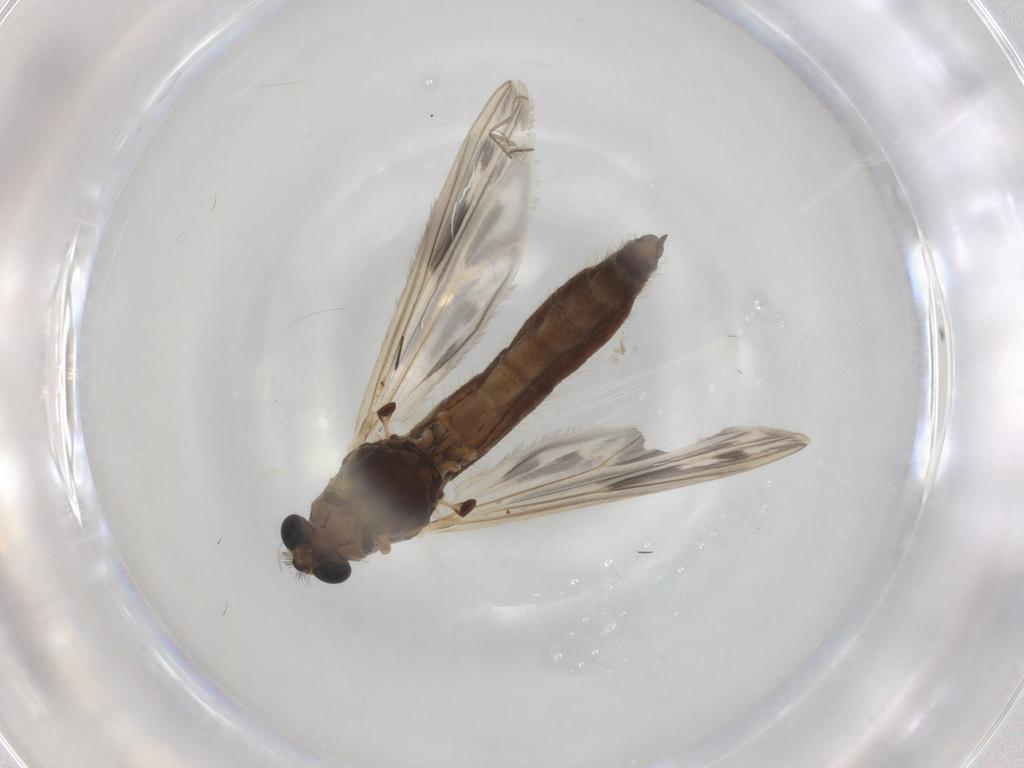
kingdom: Animalia
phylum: Arthropoda
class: Insecta
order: Diptera
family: Chironomidae
